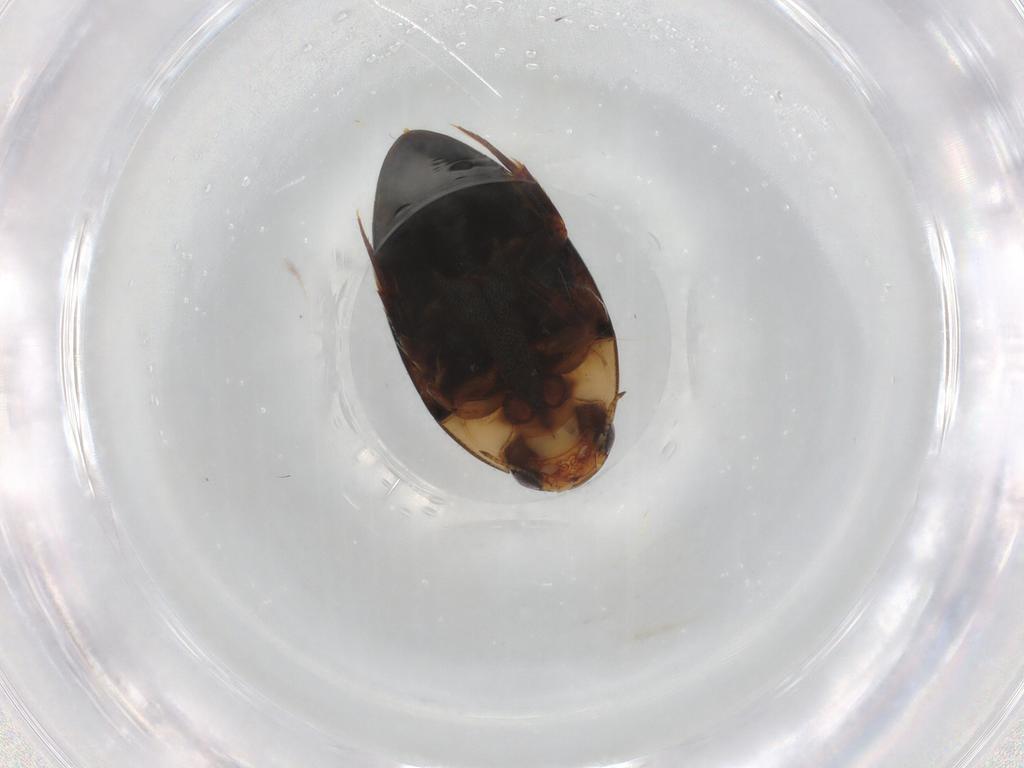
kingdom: Animalia
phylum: Arthropoda
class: Insecta
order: Coleoptera
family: Noteridae
